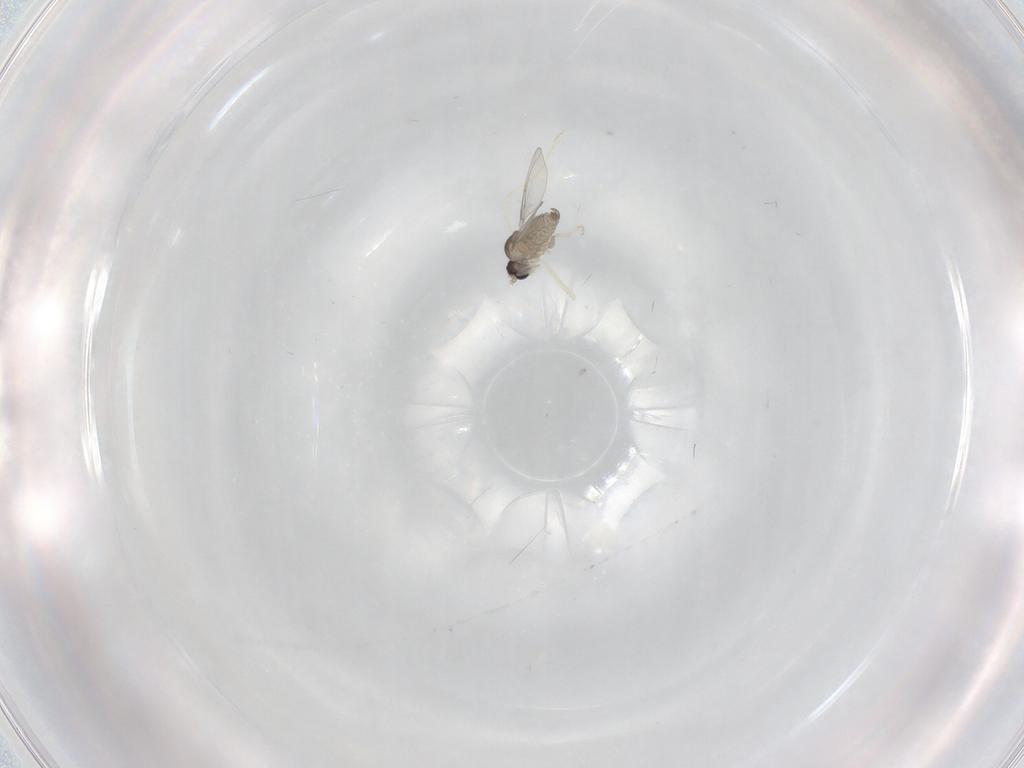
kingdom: Animalia
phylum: Arthropoda
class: Insecta
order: Diptera
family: Cecidomyiidae
